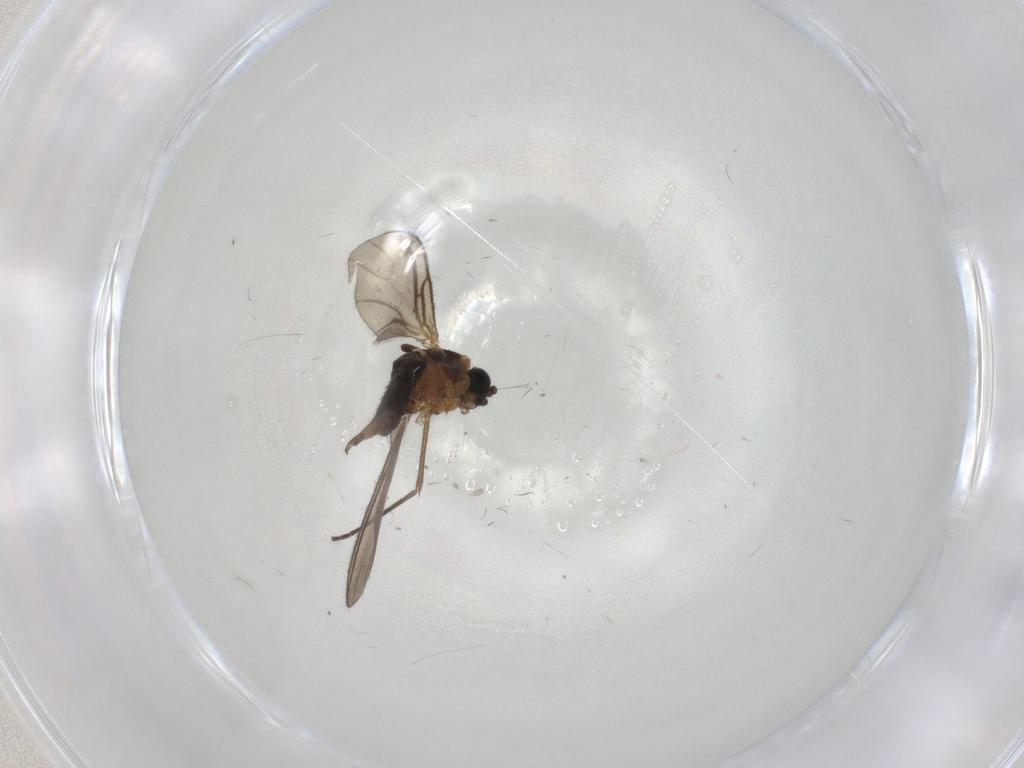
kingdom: Animalia
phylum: Arthropoda
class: Insecta
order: Diptera
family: Sciaridae
